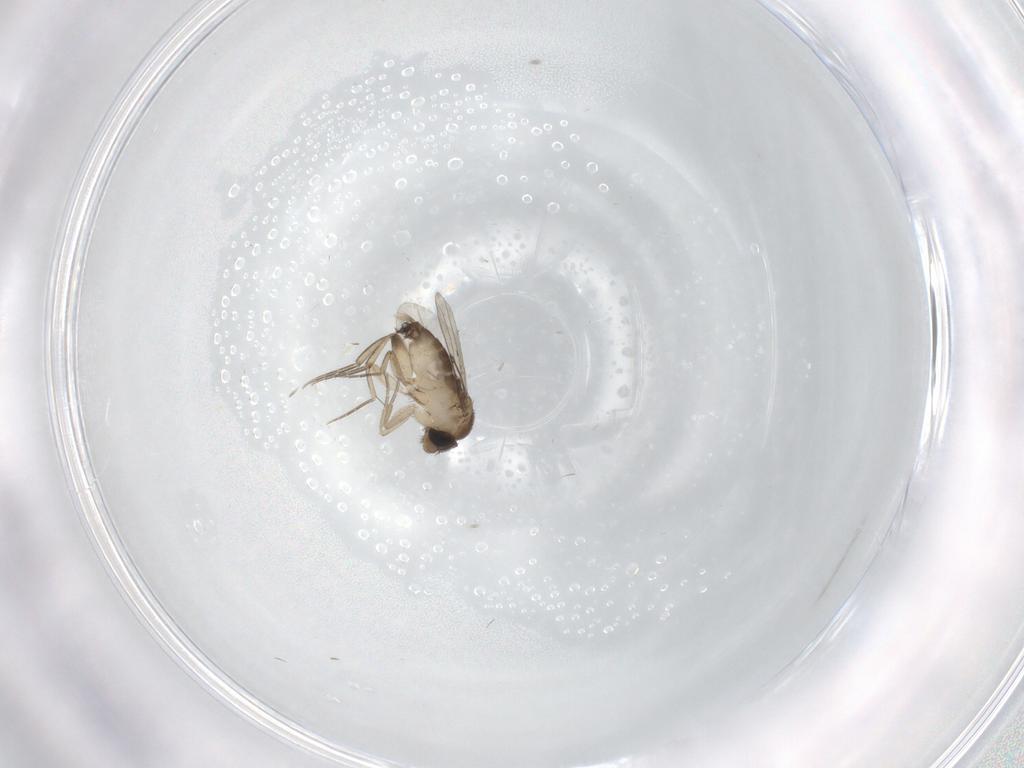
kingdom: Animalia
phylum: Arthropoda
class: Insecta
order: Diptera
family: Phoridae
